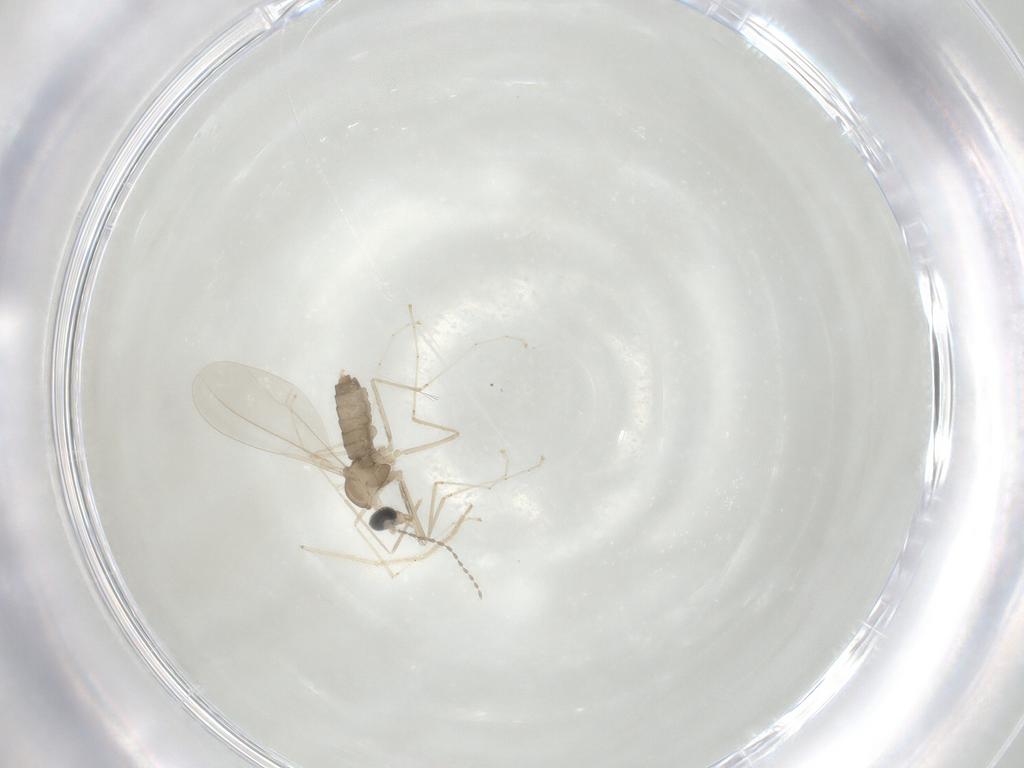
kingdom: Animalia
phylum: Arthropoda
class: Insecta
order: Diptera
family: Cecidomyiidae
